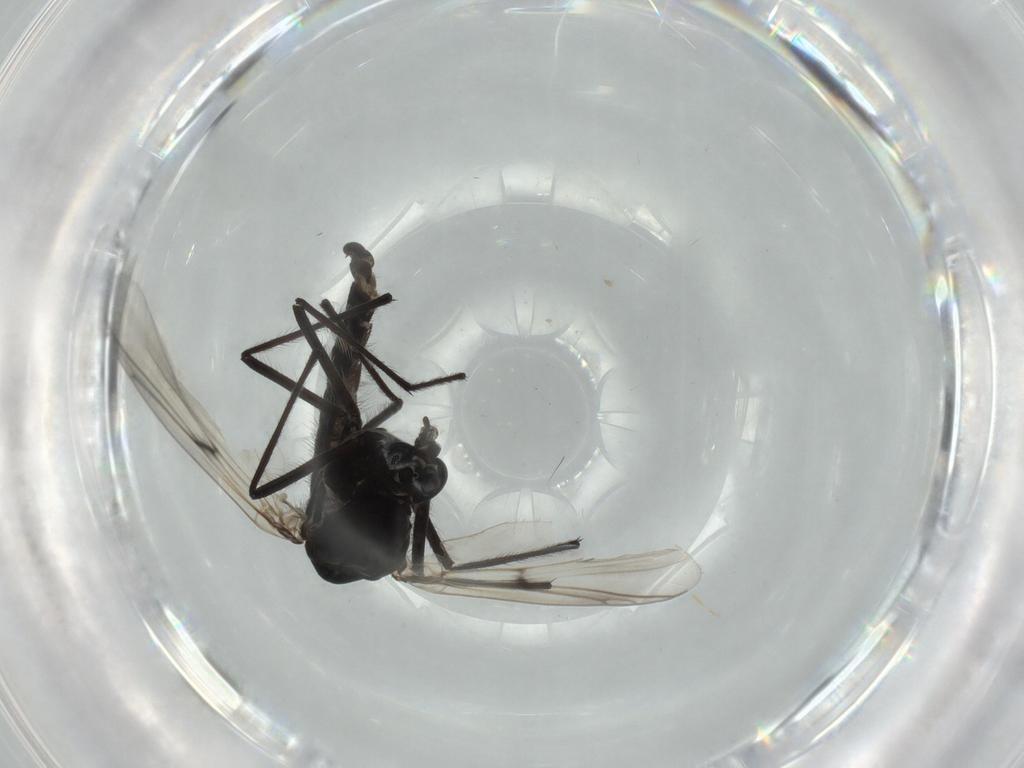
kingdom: Animalia
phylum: Arthropoda
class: Insecta
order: Diptera
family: Chironomidae
